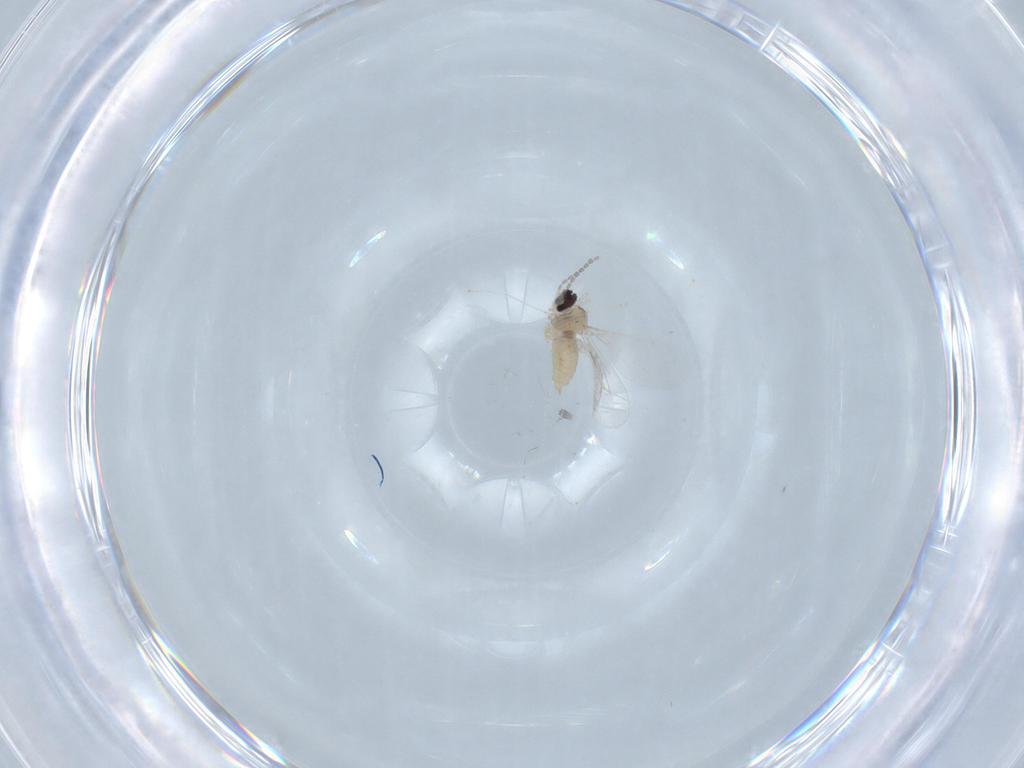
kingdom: Animalia
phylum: Arthropoda
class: Insecta
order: Diptera
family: Cecidomyiidae
